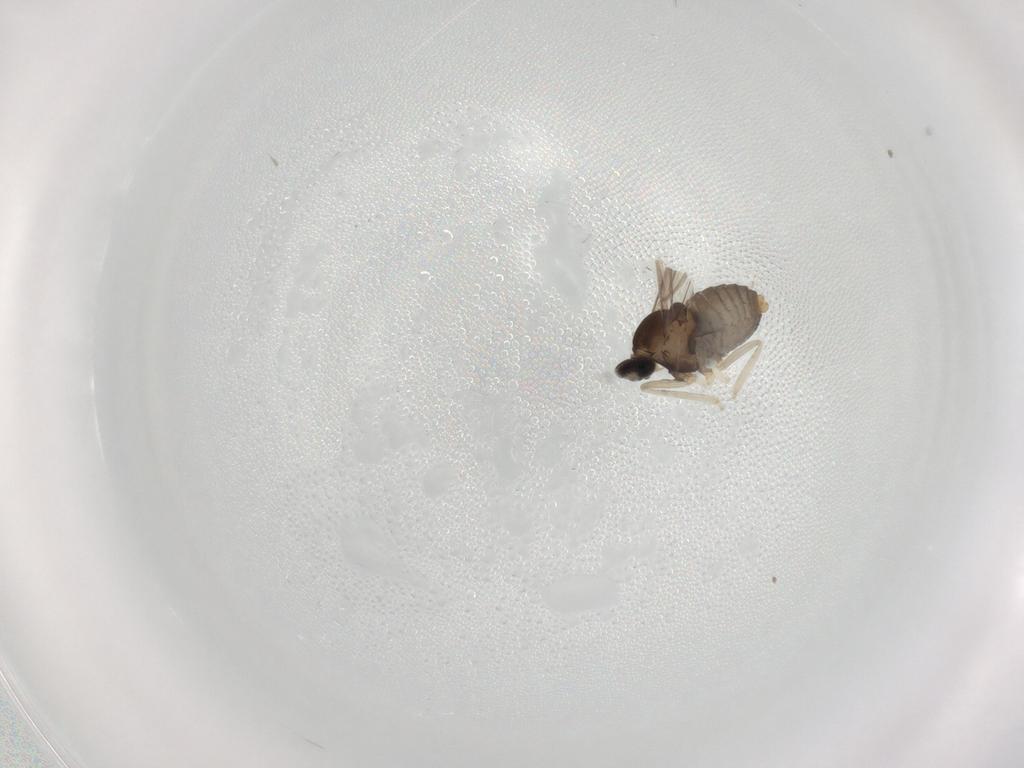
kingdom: Animalia
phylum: Arthropoda
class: Insecta
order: Diptera
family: Cecidomyiidae
